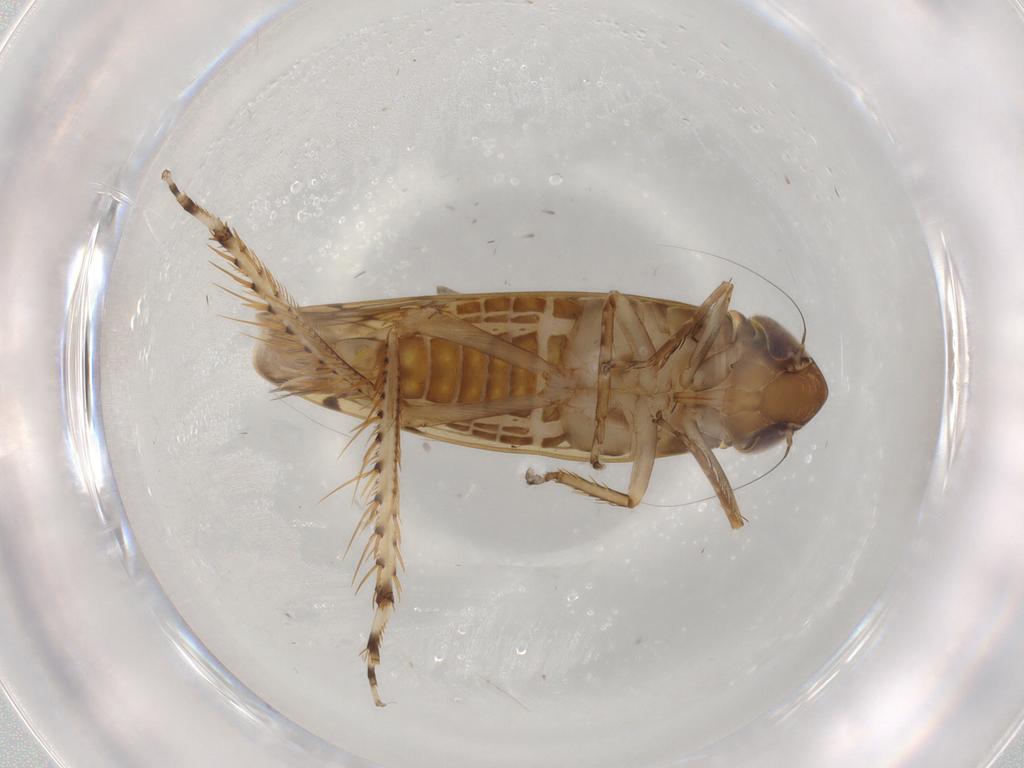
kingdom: Animalia
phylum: Arthropoda
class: Insecta
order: Hemiptera
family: Cicadellidae
